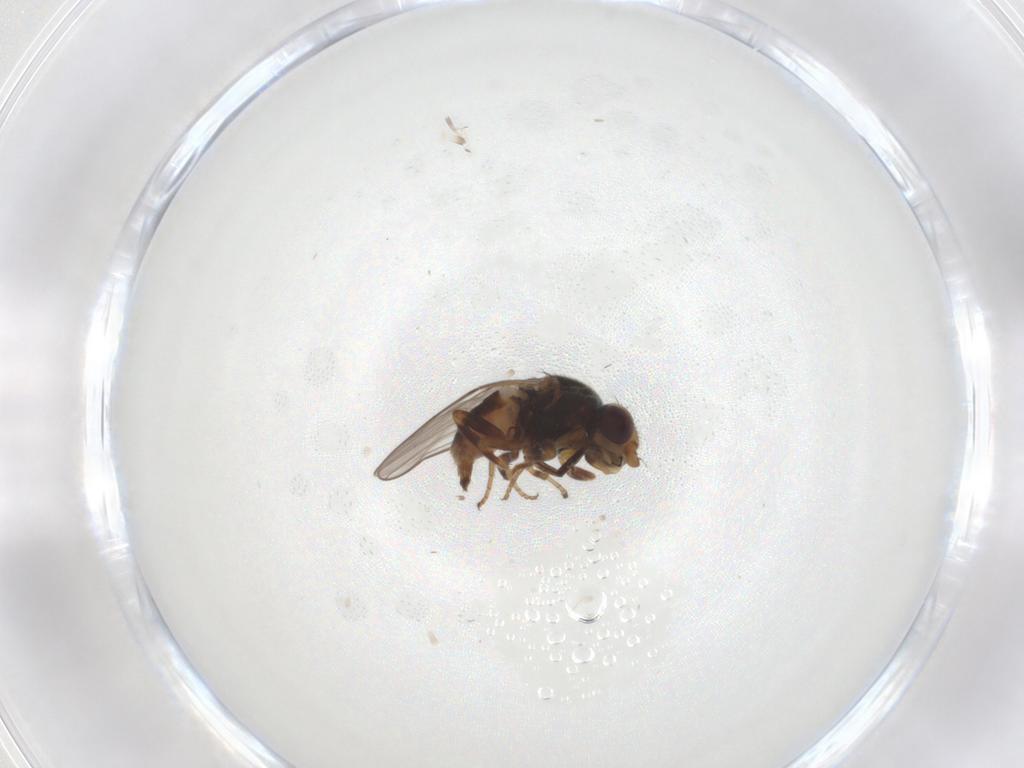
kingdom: Animalia
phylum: Arthropoda
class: Insecta
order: Diptera
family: Chloropidae
